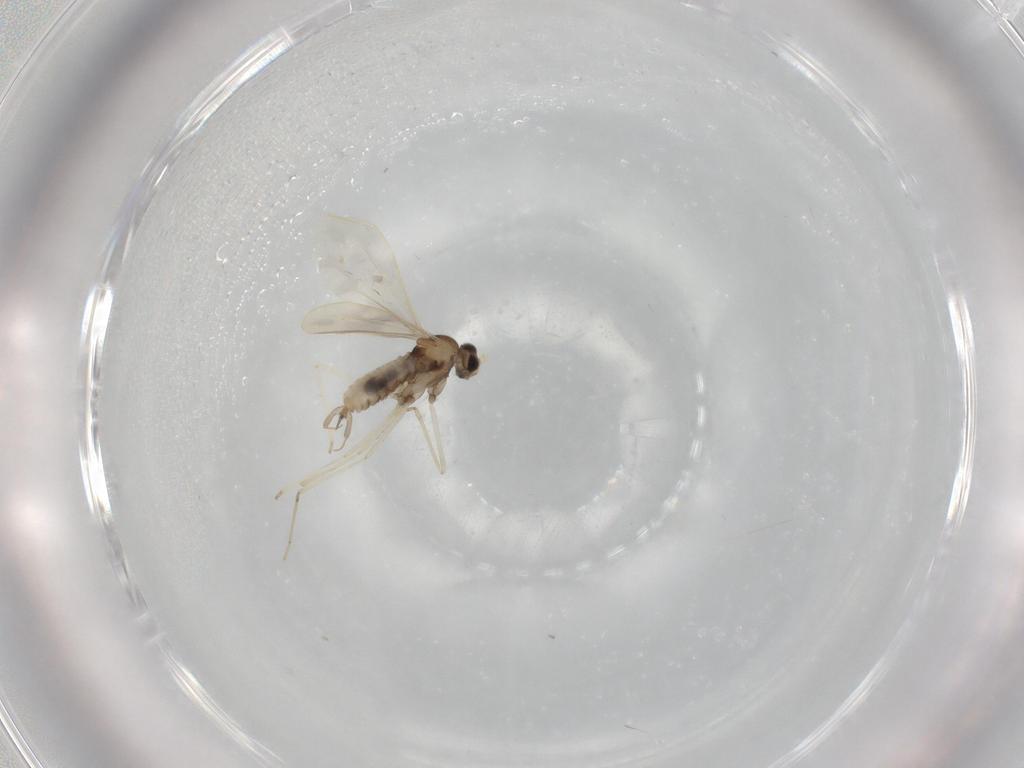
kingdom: Animalia
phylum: Arthropoda
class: Insecta
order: Diptera
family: Cecidomyiidae
